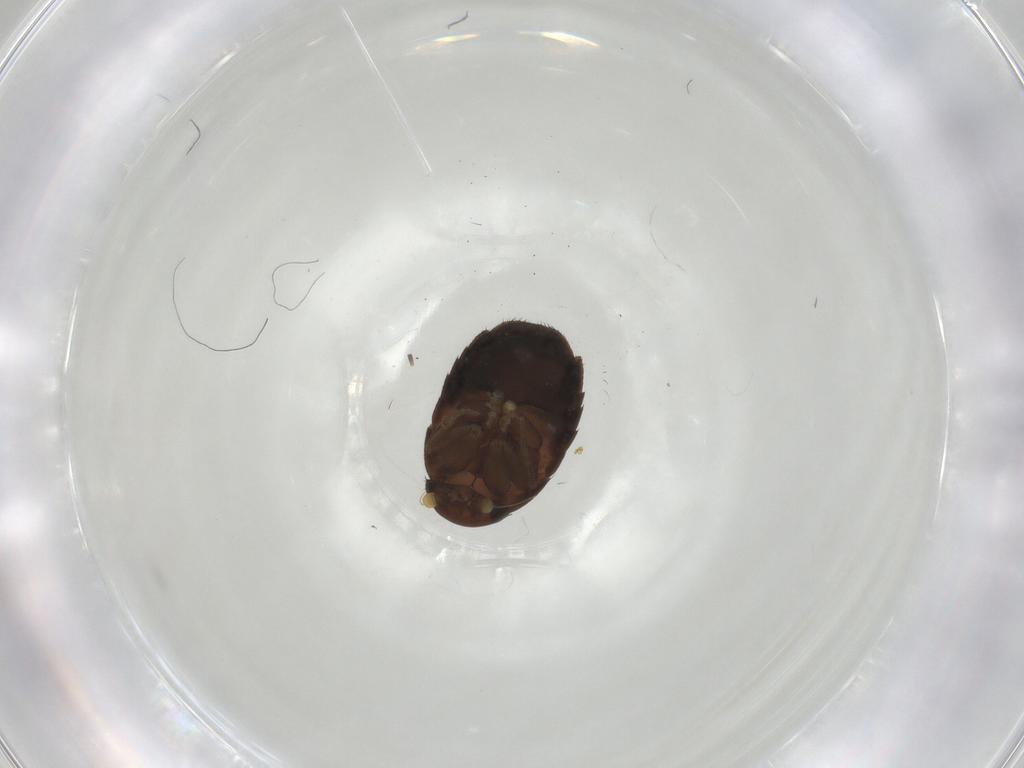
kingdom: Animalia
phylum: Arthropoda
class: Insecta
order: Diptera
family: Phoridae
